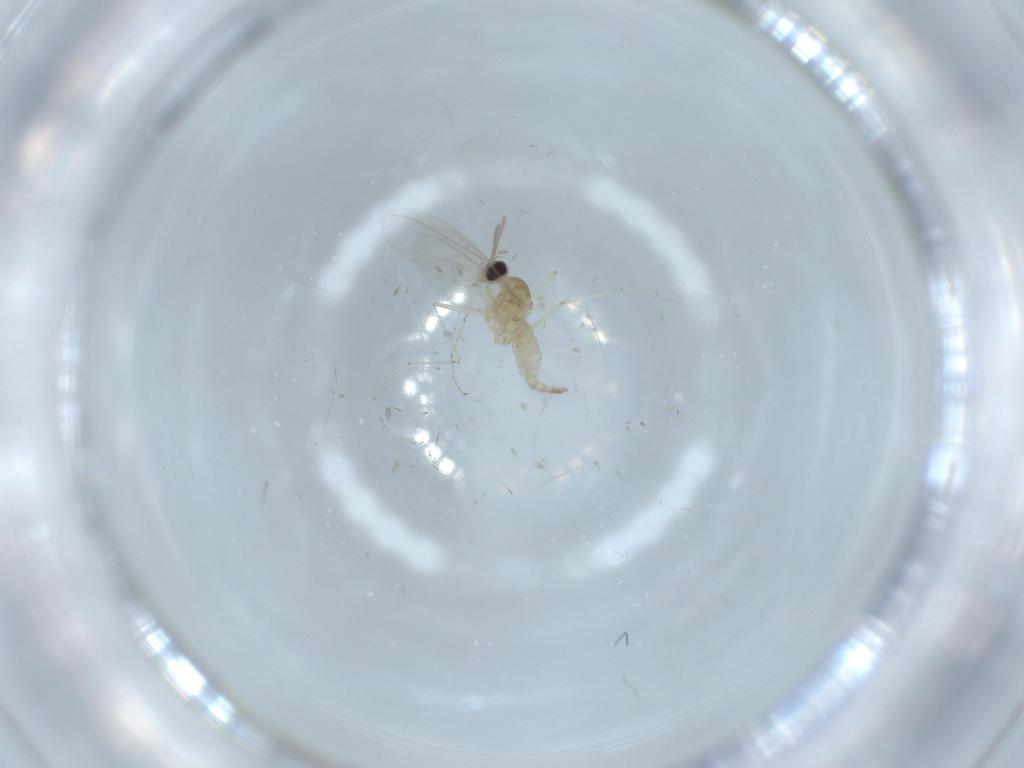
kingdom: Animalia
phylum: Arthropoda
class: Insecta
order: Diptera
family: Cecidomyiidae
